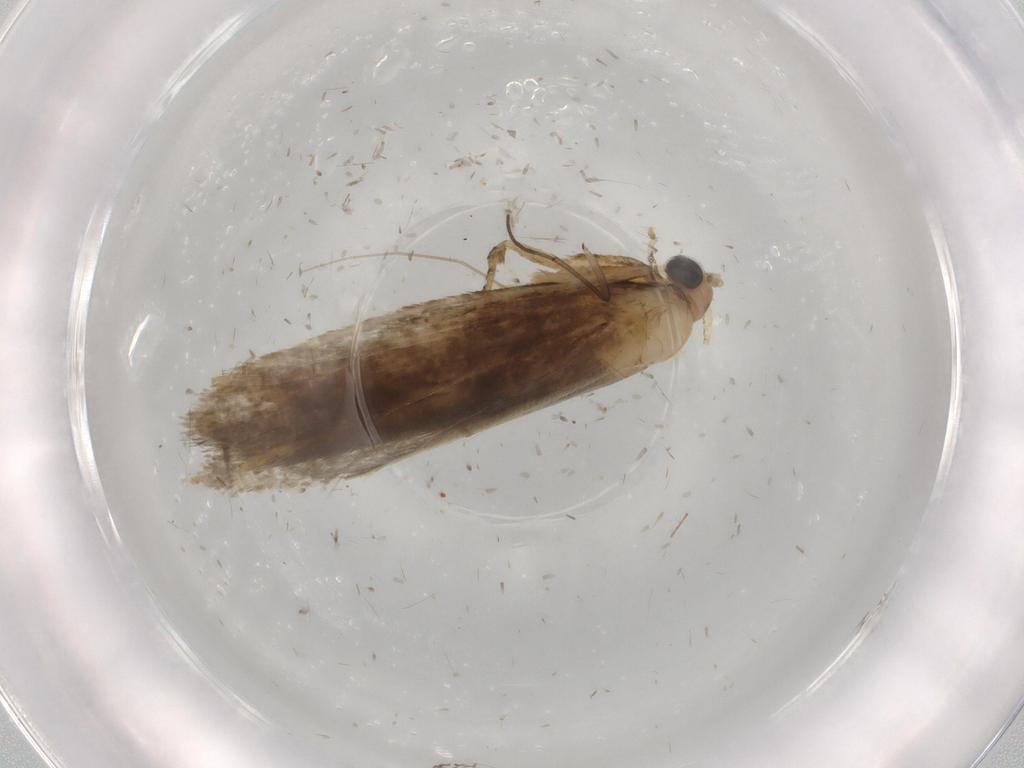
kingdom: Animalia
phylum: Arthropoda
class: Insecta
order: Lepidoptera
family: Tineidae
